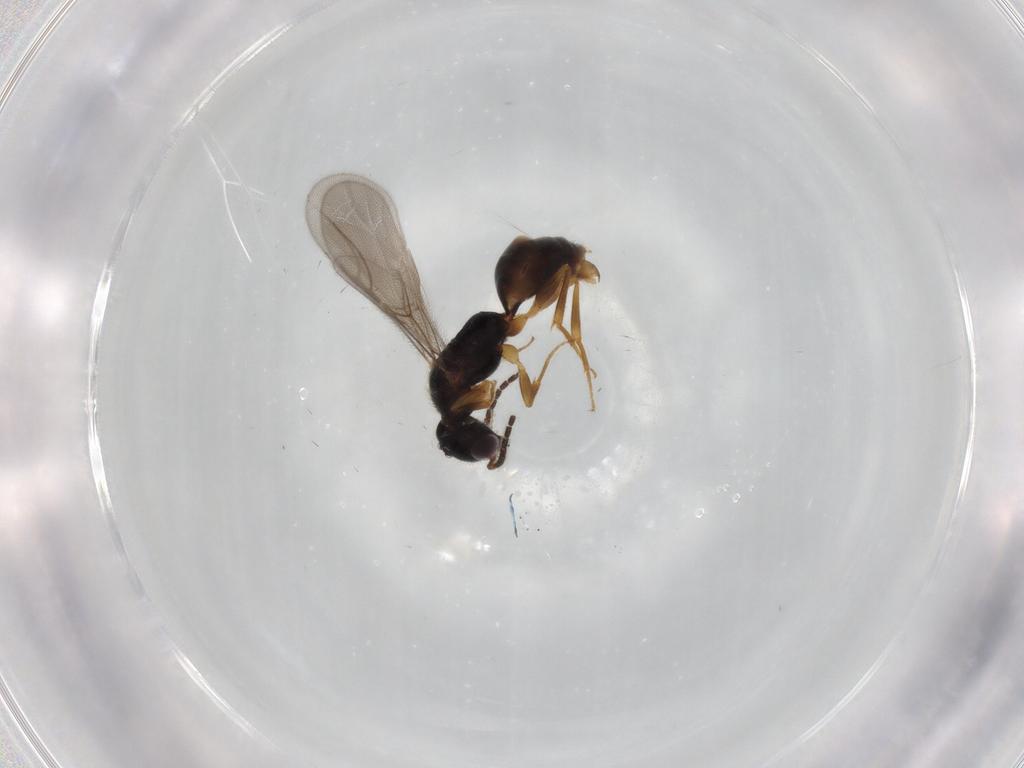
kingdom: Animalia
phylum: Arthropoda
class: Insecta
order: Hymenoptera
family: Bethylidae
